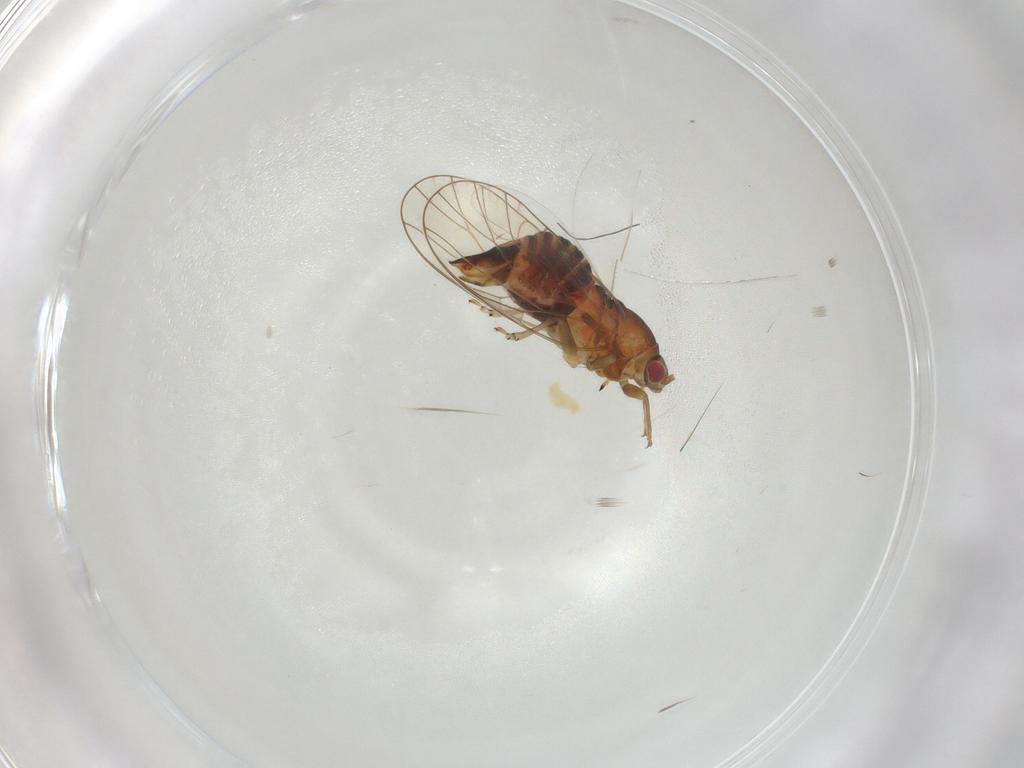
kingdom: Animalia
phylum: Arthropoda
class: Insecta
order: Hemiptera
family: Psyllidae
